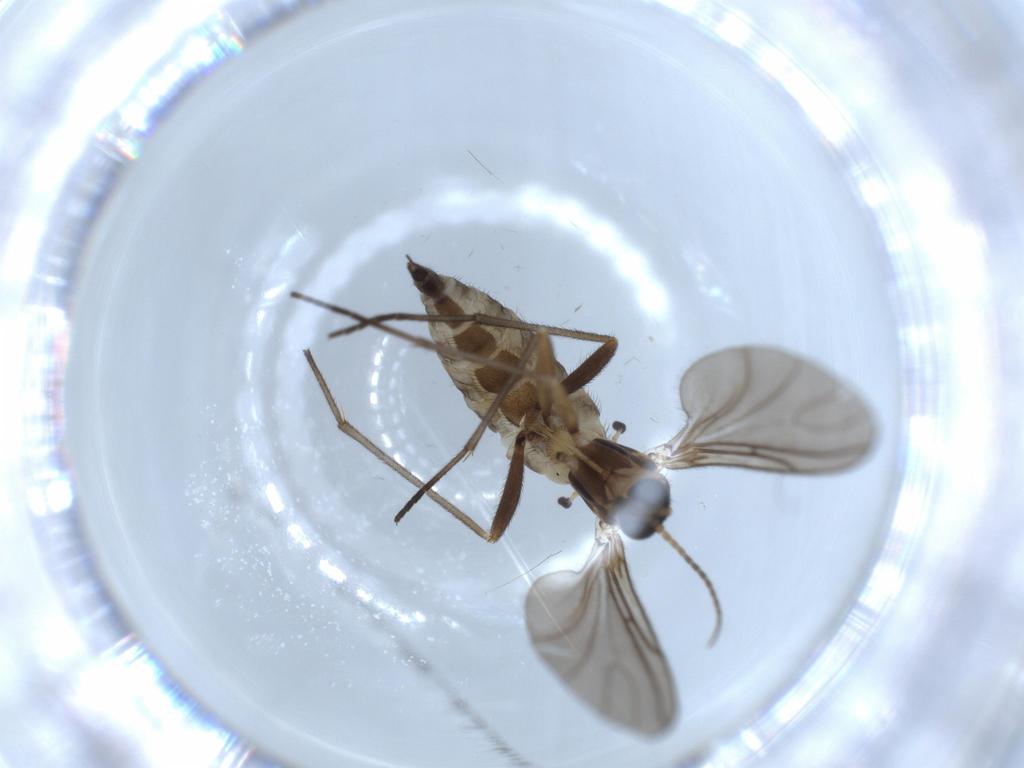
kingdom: Animalia
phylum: Arthropoda
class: Insecta
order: Diptera
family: Sciaridae
